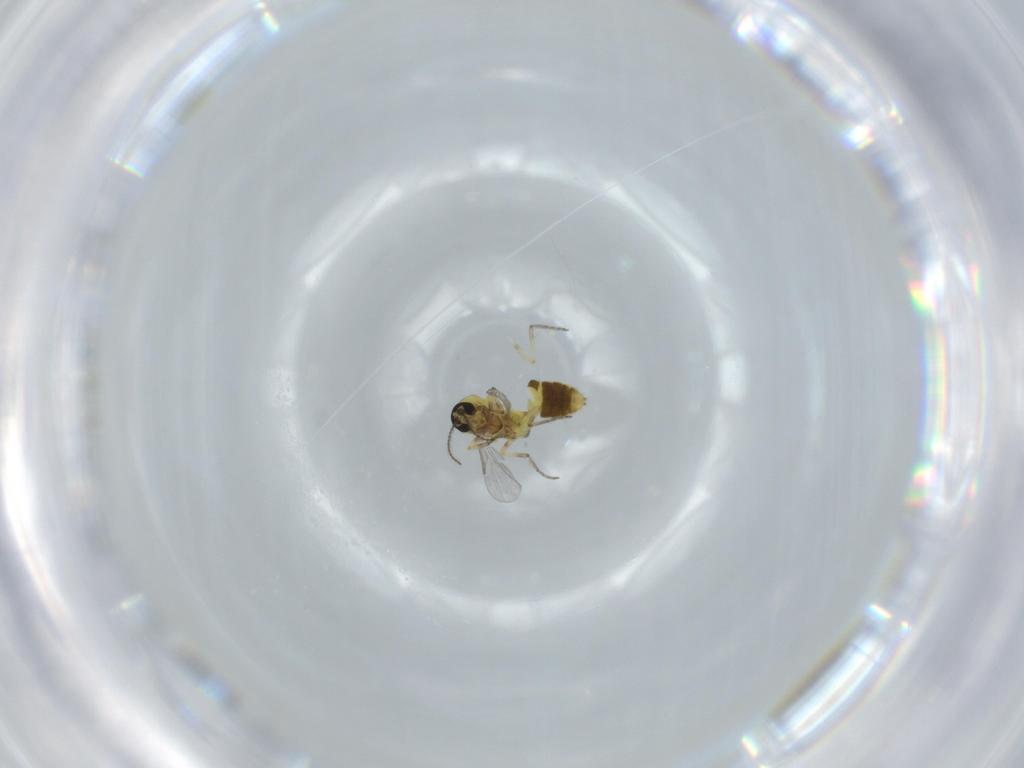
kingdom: Animalia
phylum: Arthropoda
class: Insecta
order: Diptera
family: Ceratopogonidae
